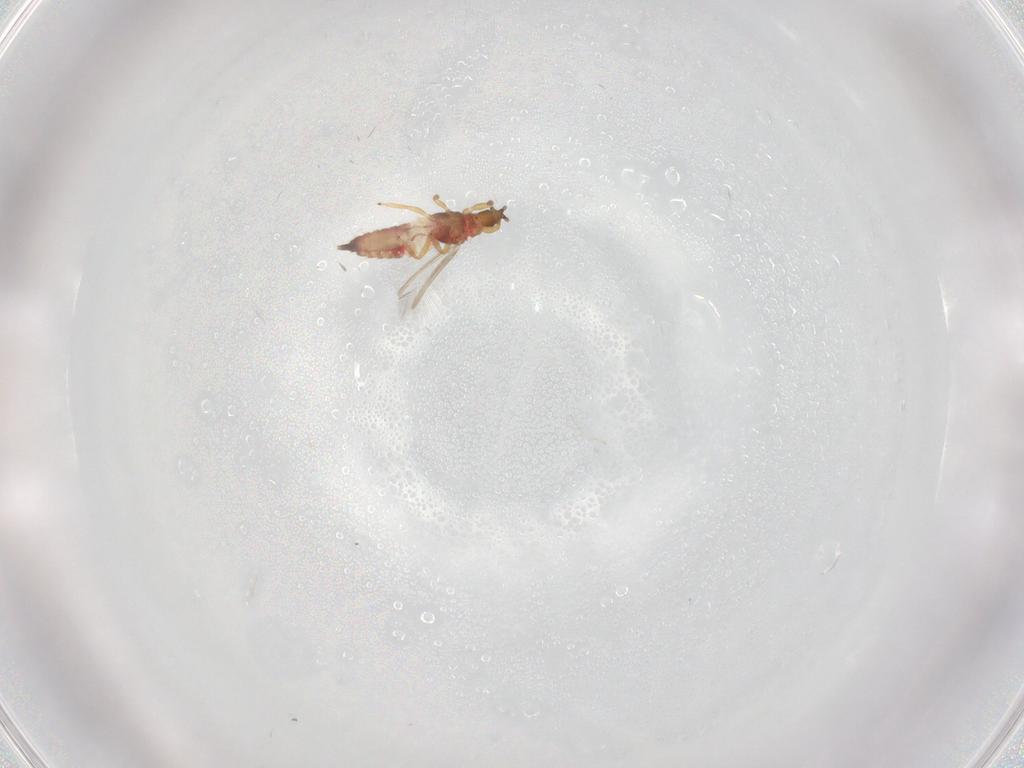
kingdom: Animalia
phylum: Arthropoda
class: Insecta
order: Thysanoptera
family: Phlaeothripidae
